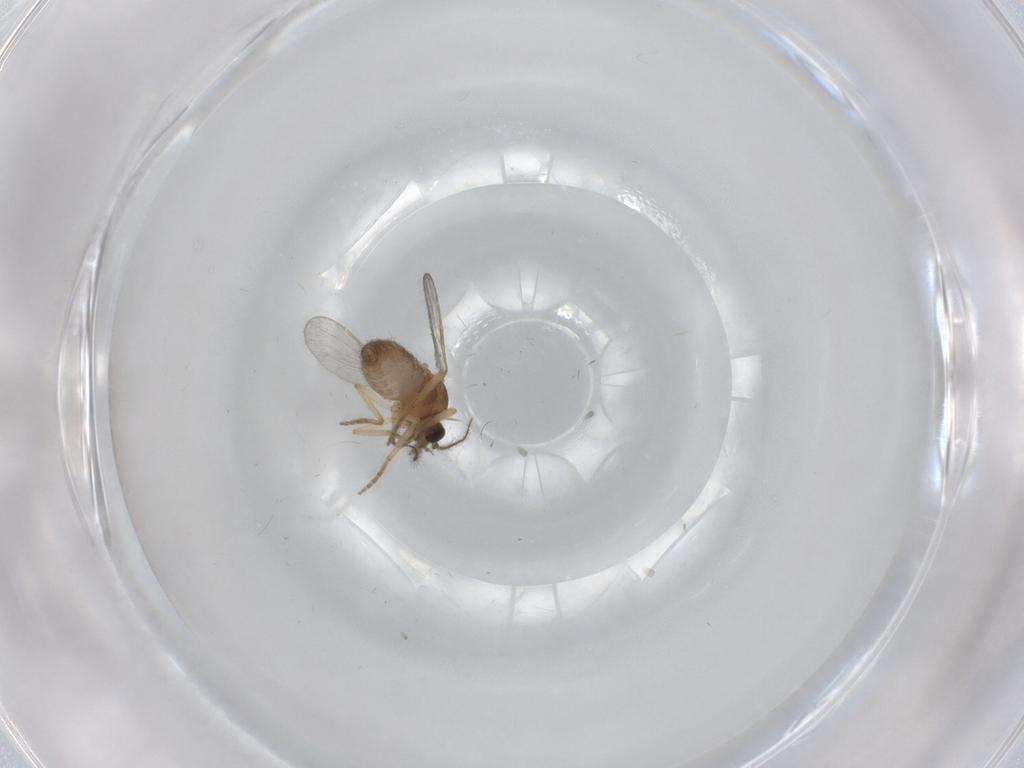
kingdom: Animalia
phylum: Arthropoda
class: Insecta
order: Diptera
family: Ceratopogonidae
